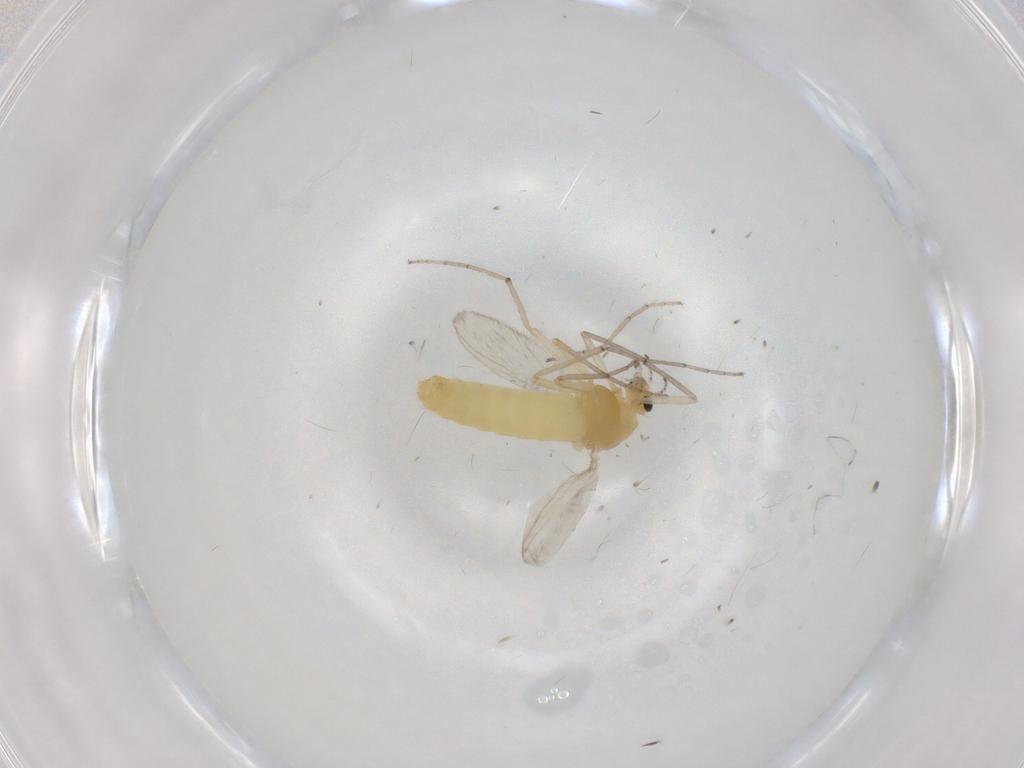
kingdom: Animalia
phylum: Arthropoda
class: Insecta
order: Diptera
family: Chironomidae
